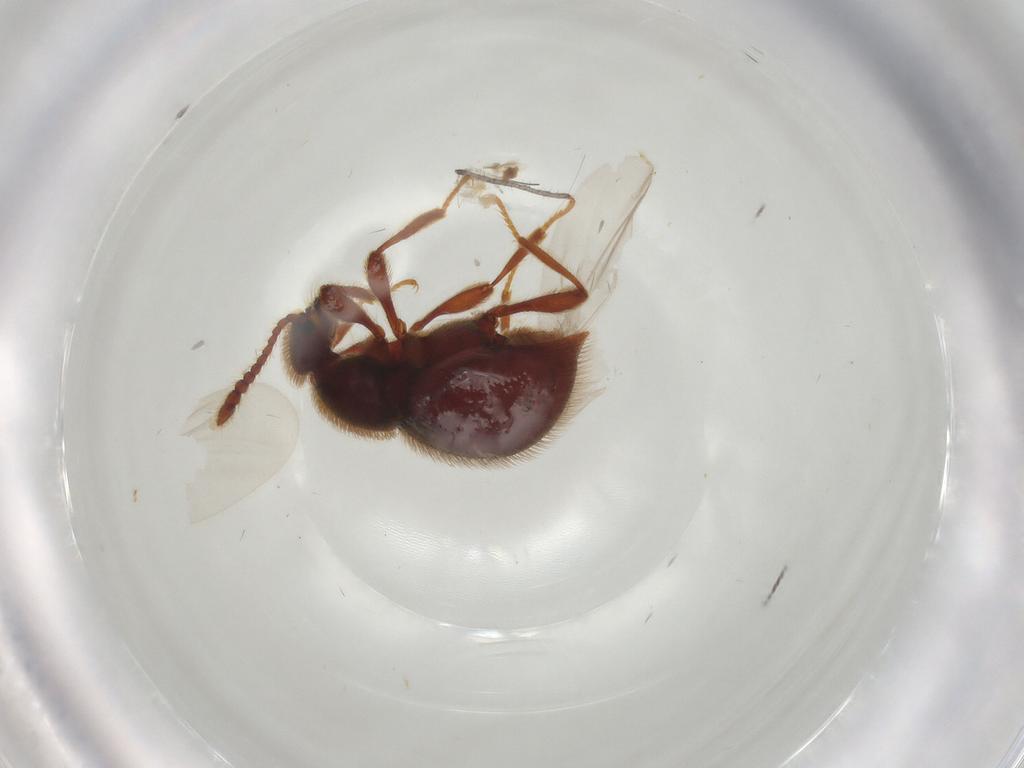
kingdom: Animalia
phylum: Arthropoda
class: Insecta
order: Coleoptera
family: Staphylinidae
